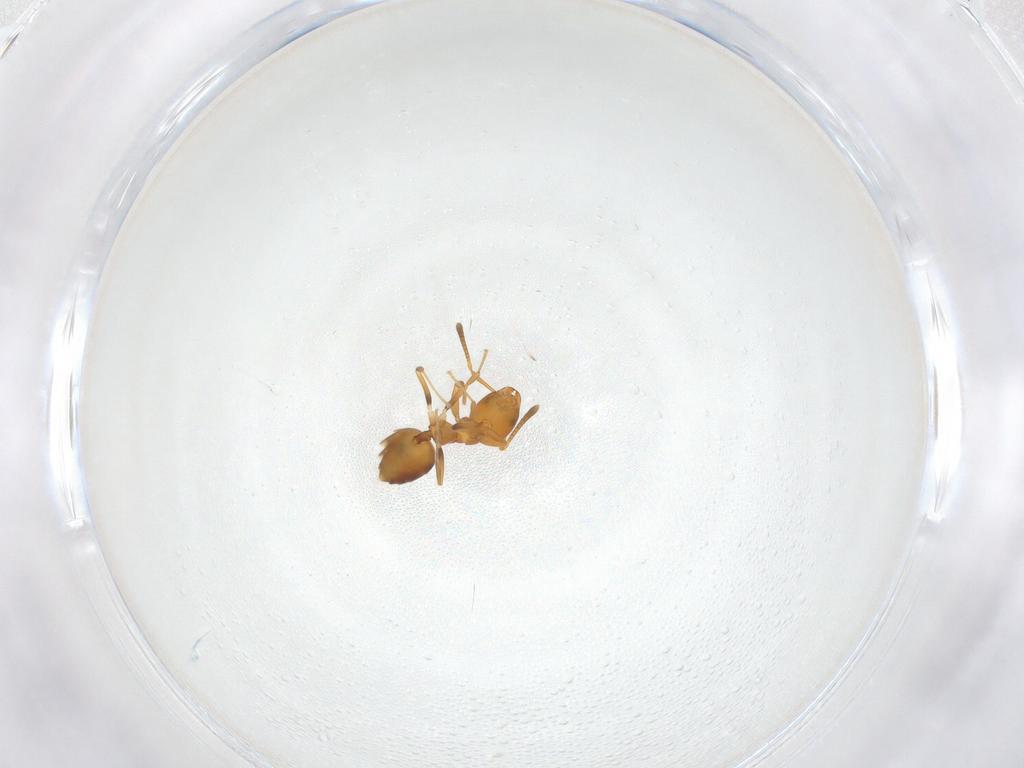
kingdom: Animalia
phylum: Arthropoda
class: Insecta
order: Hymenoptera
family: Formicidae
